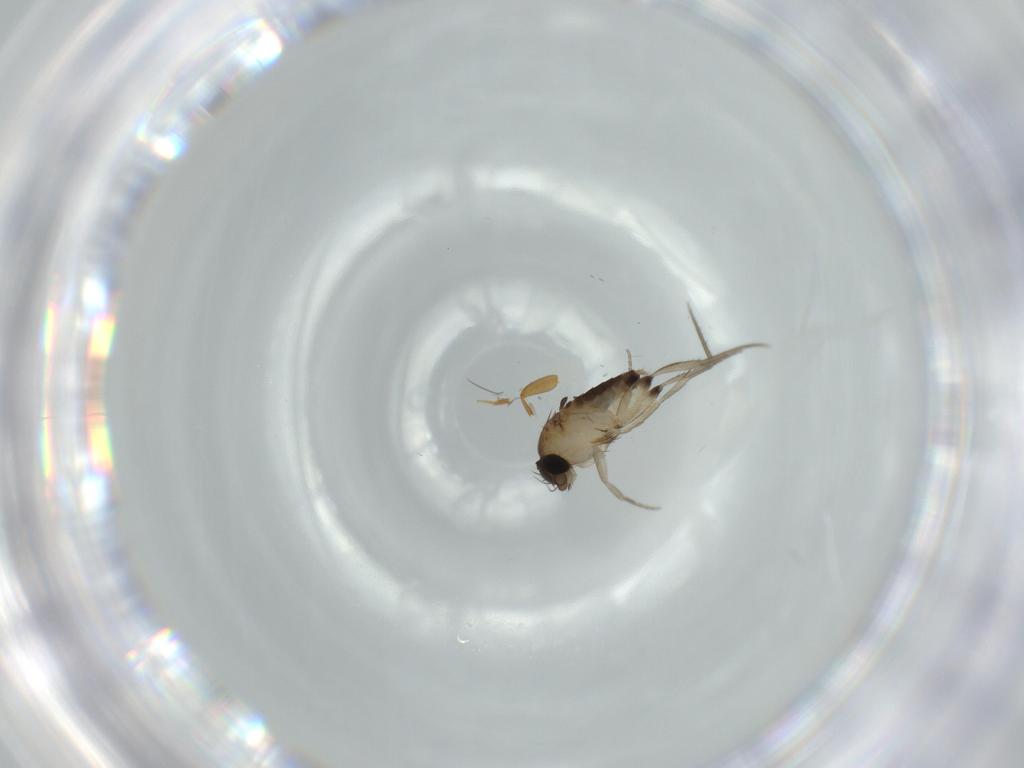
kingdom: Animalia
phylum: Arthropoda
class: Insecta
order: Diptera
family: Phoridae
